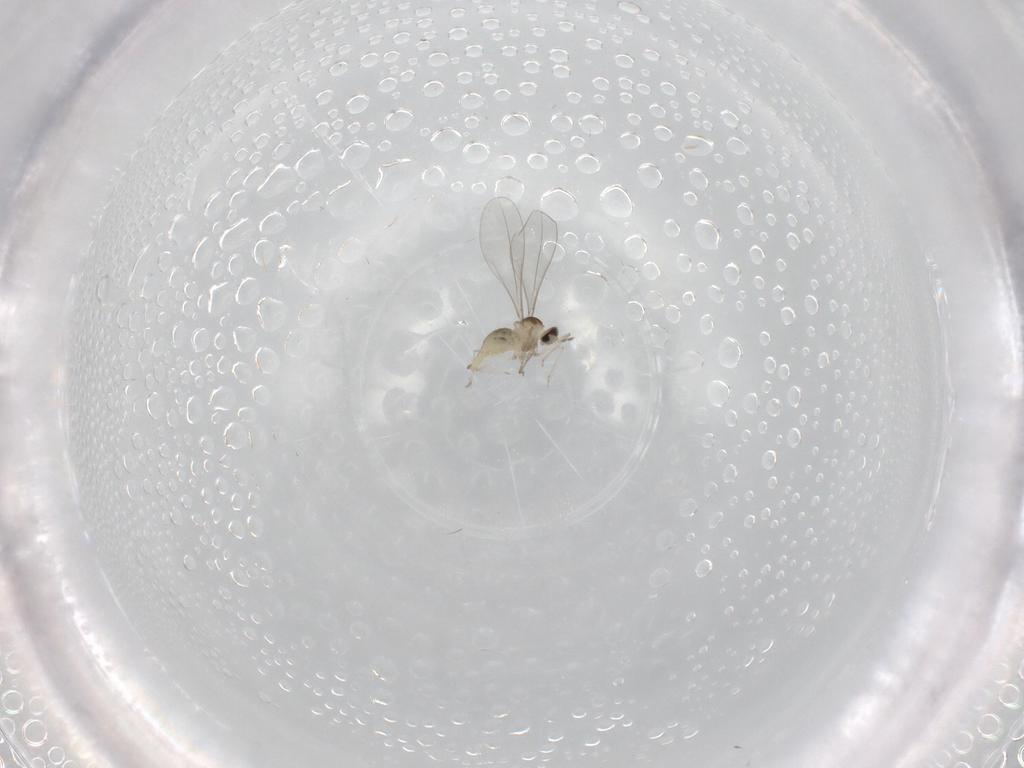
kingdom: Animalia
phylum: Arthropoda
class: Insecta
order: Diptera
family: Cecidomyiidae
